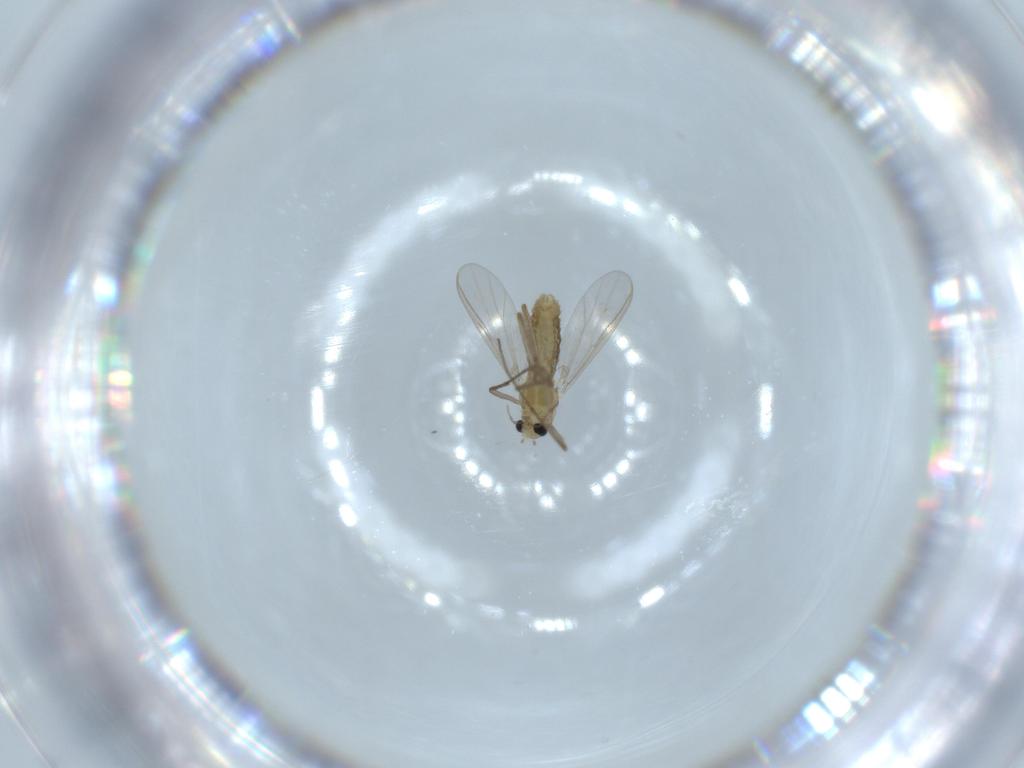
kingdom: Animalia
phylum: Arthropoda
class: Insecta
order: Diptera
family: Chironomidae
